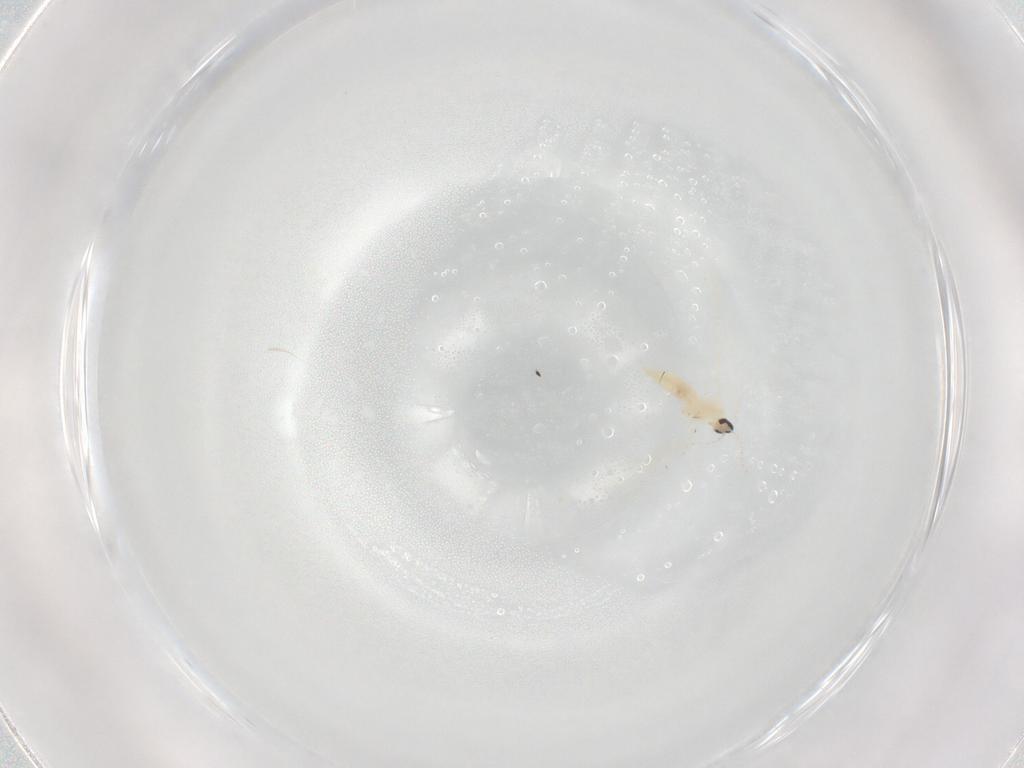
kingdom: Animalia
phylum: Arthropoda
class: Insecta
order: Diptera
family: Cecidomyiidae
